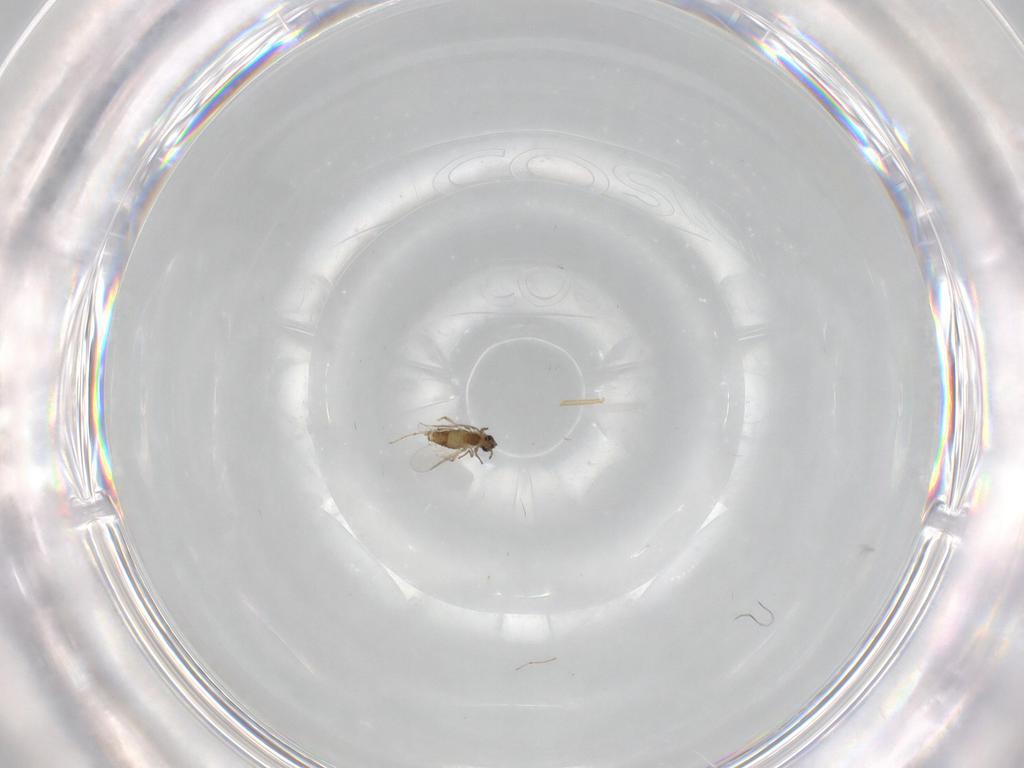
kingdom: Animalia
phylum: Arthropoda
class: Insecta
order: Diptera
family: Chironomidae
